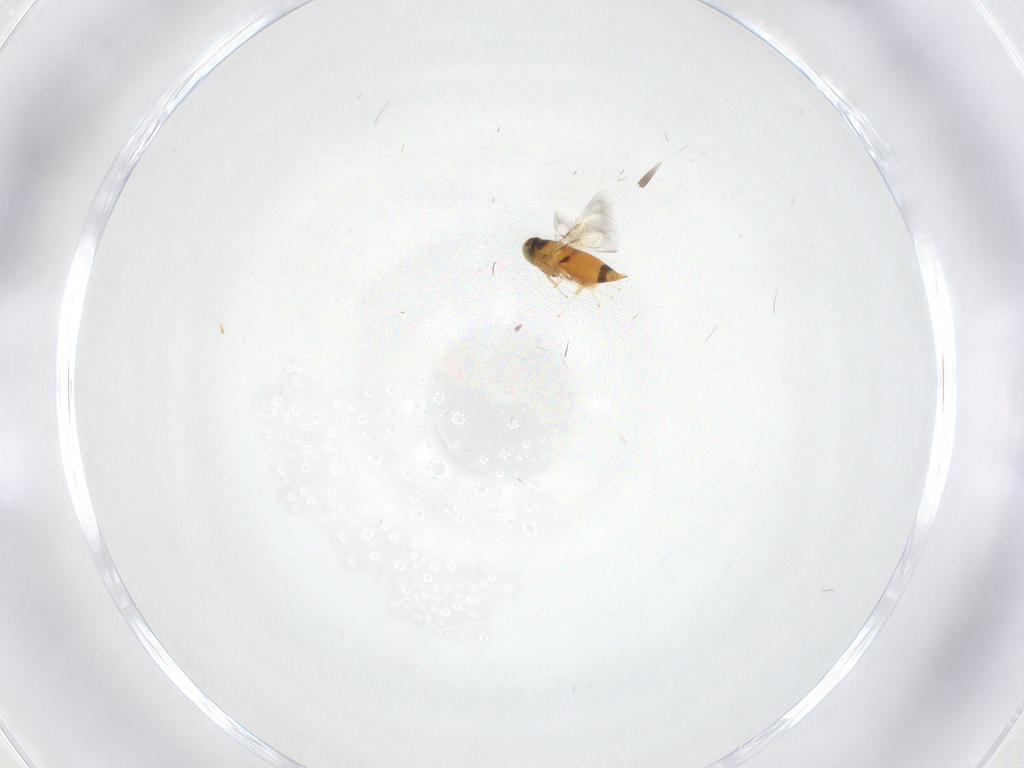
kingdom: Animalia
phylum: Arthropoda
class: Insecta
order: Hymenoptera
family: Signiphoridae
